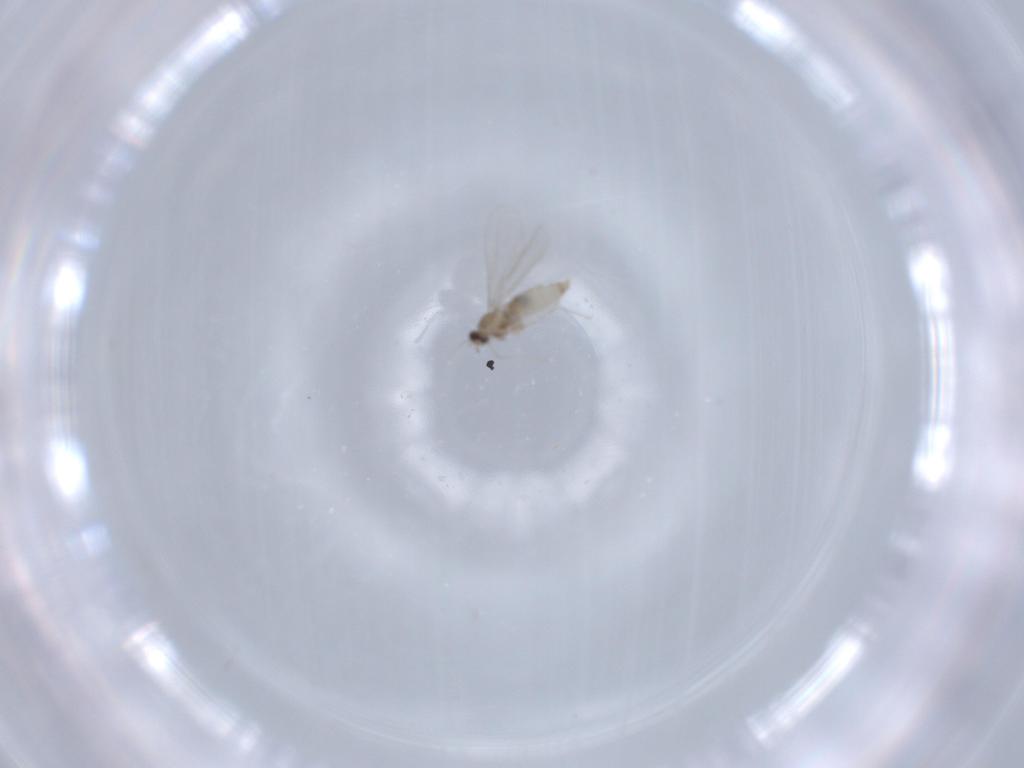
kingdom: Animalia
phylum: Arthropoda
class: Insecta
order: Diptera
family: Cecidomyiidae
